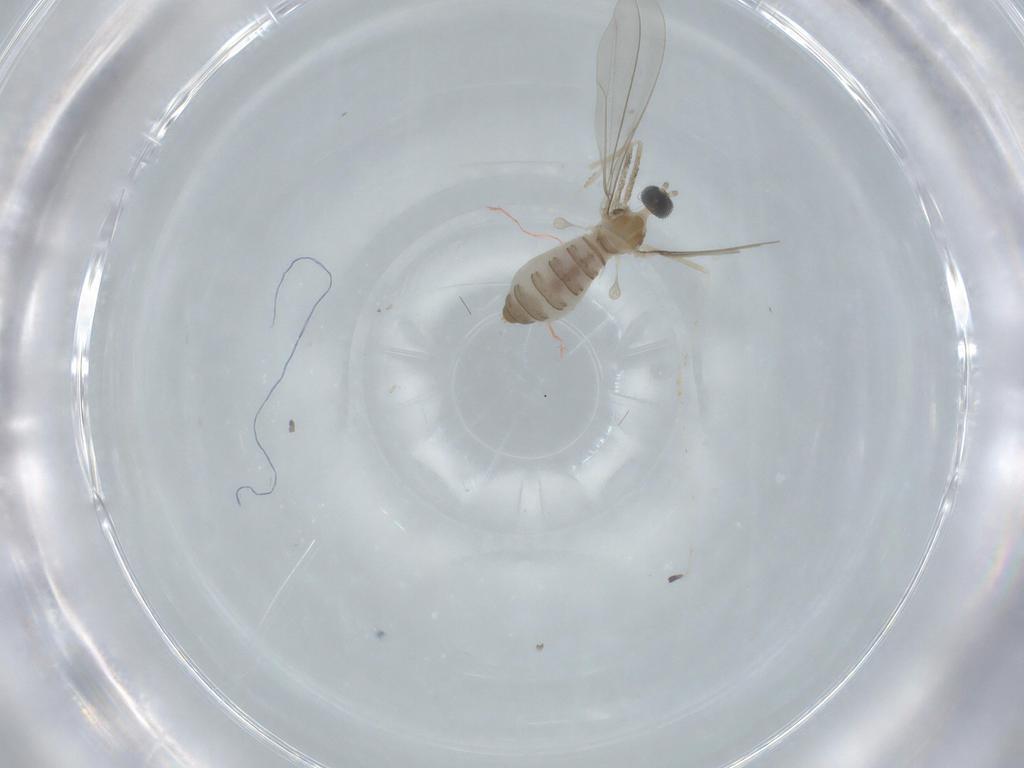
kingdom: Animalia
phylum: Arthropoda
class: Insecta
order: Diptera
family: Cecidomyiidae
